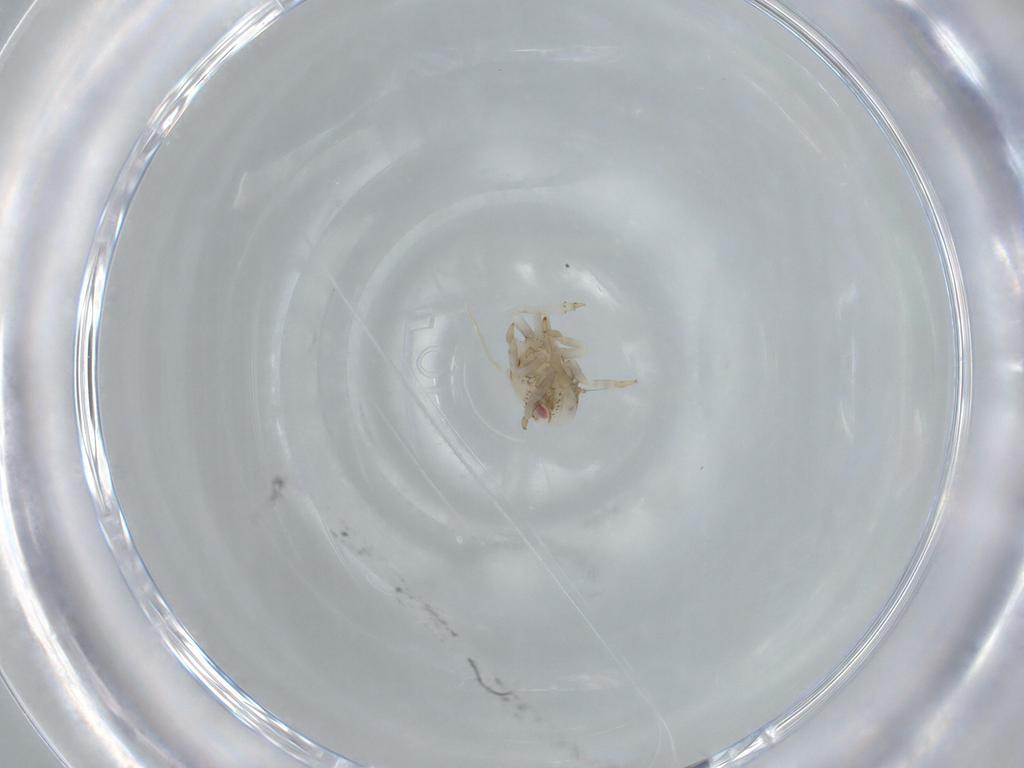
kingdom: Animalia
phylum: Arthropoda
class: Insecta
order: Hemiptera
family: Acanaloniidae
